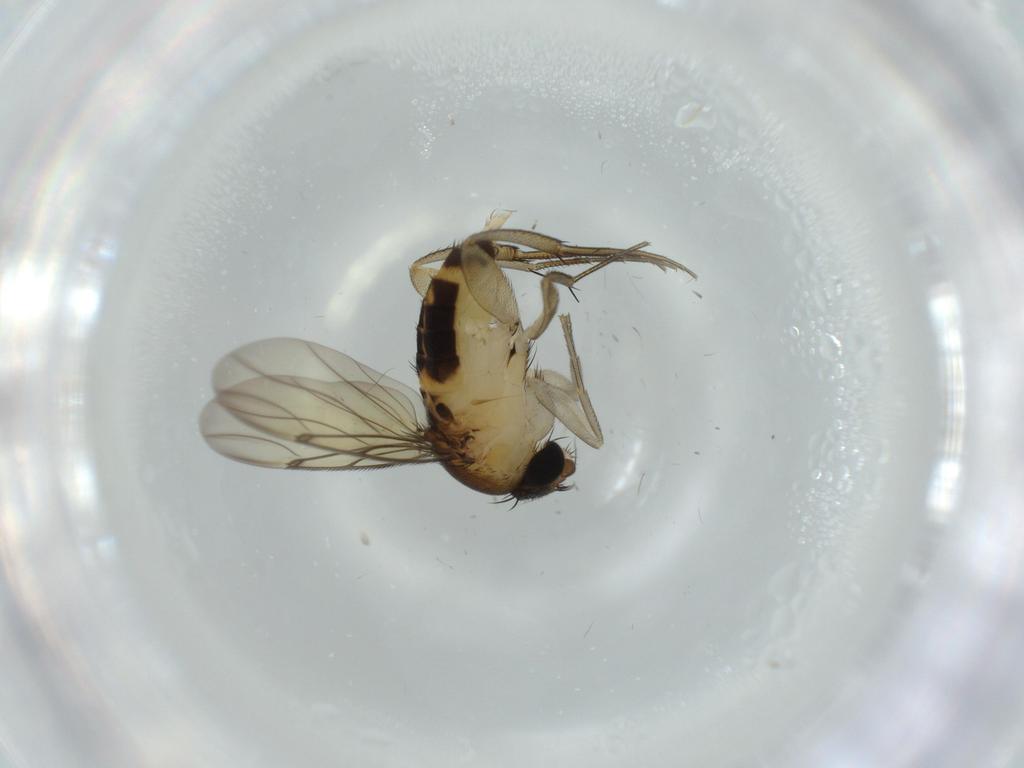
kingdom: Animalia
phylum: Arthropoda
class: Insecta
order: Diptera
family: Phoridae
